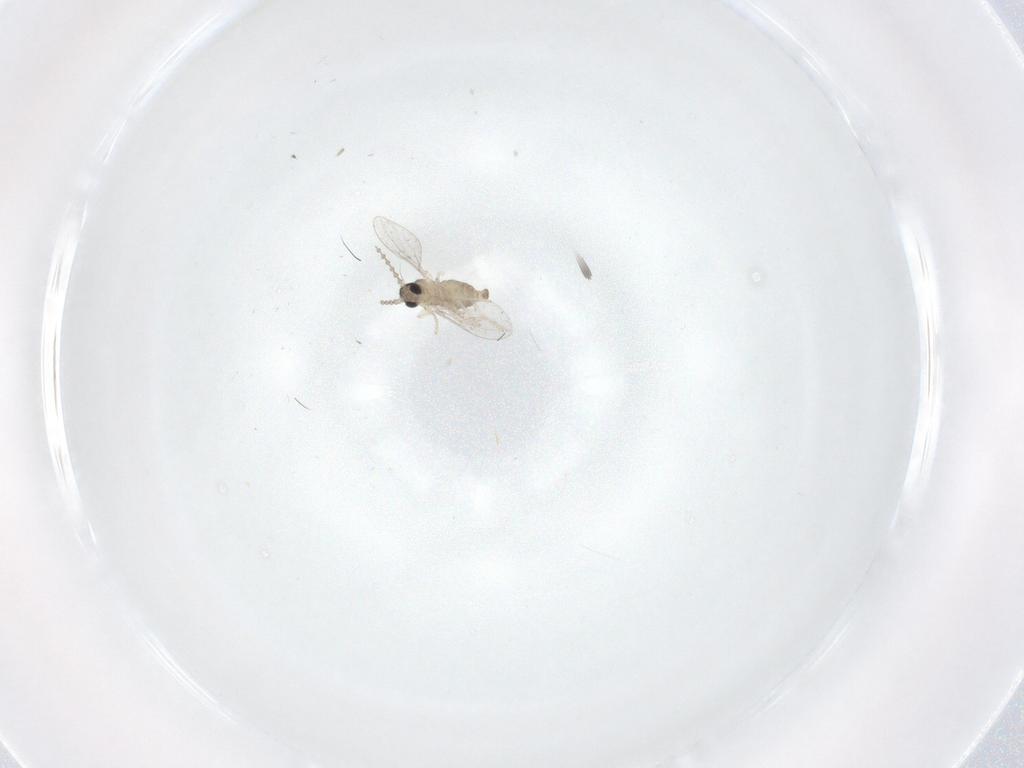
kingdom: Animalia
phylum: Arthropoda
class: Insecta
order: Diptera
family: Cecidomyiidae
